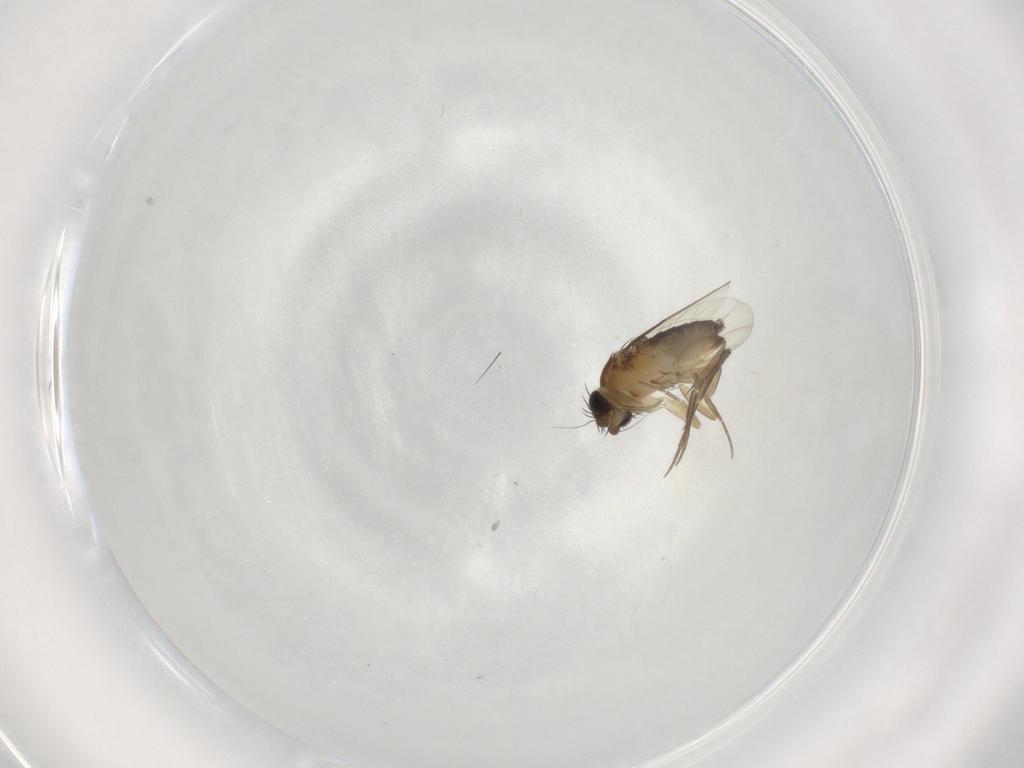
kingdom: Animalia
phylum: Arthropoda
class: Insecta
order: Diptera
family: Phoridae
